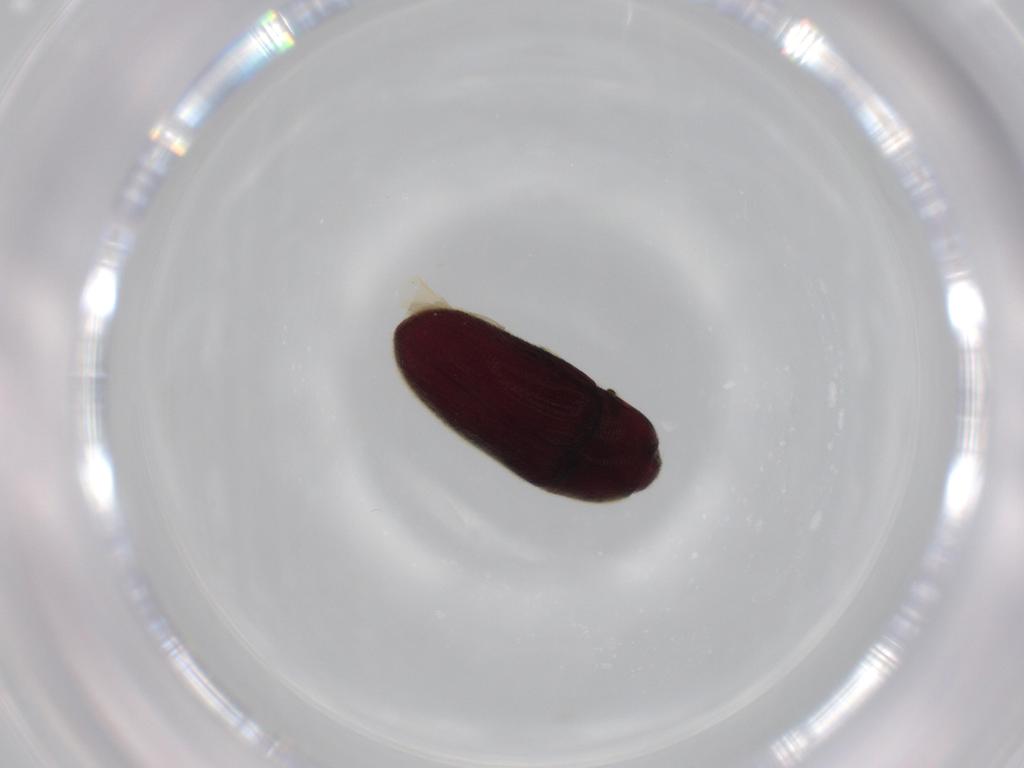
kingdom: Animalia
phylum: Arthropoda
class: Insecta
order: Coleoptera
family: Throscidae
